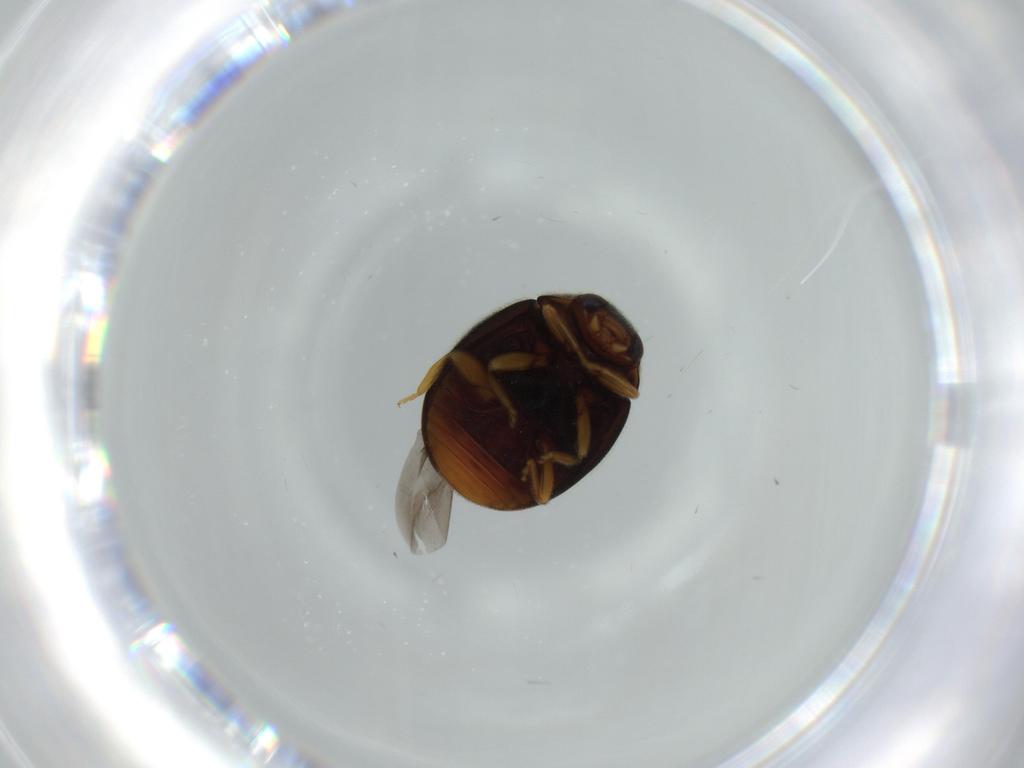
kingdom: Animalia
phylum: Arthropoda
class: Insecta
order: Coleoptera
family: Coccinellidae
